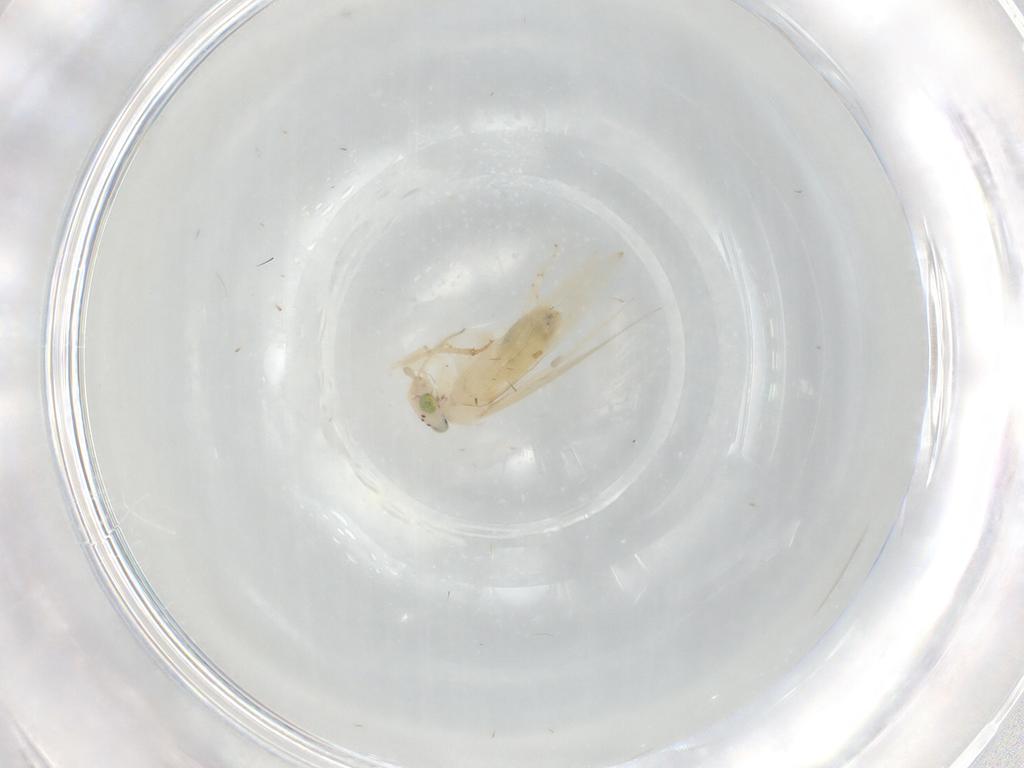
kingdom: Animalia
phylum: Arthropoda
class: Insecta
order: Psocodea
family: Lepidopsocidae
